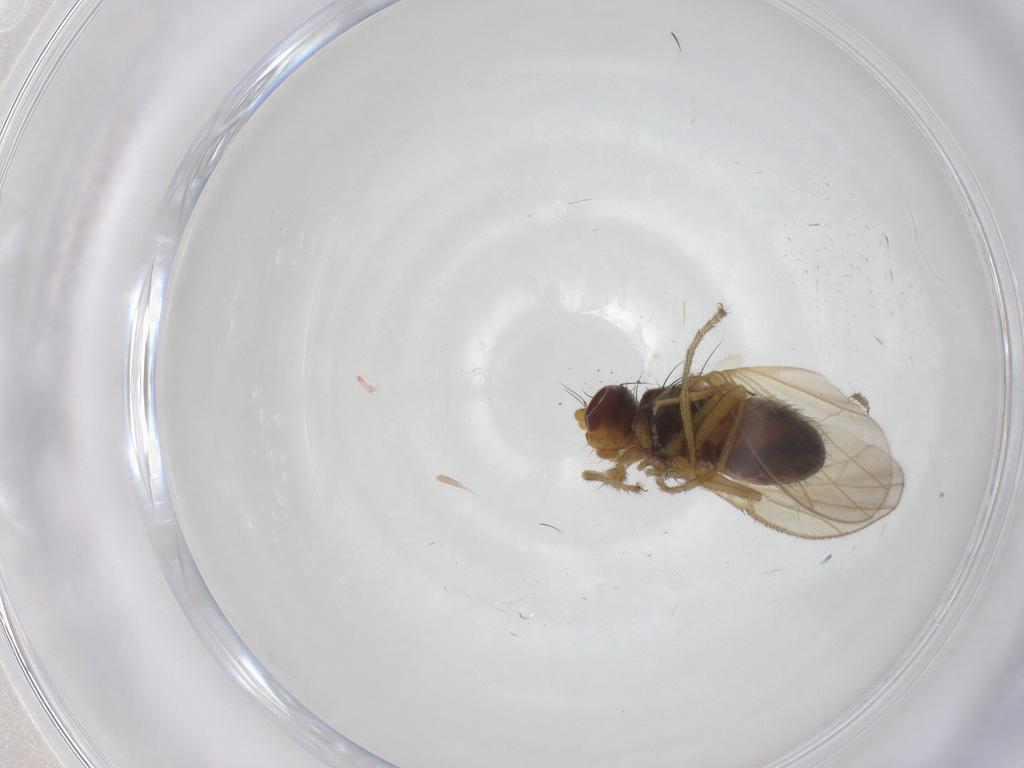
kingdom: Animalia
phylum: Arthropoda
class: Insecta
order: Diptera
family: Heleomyzidae
